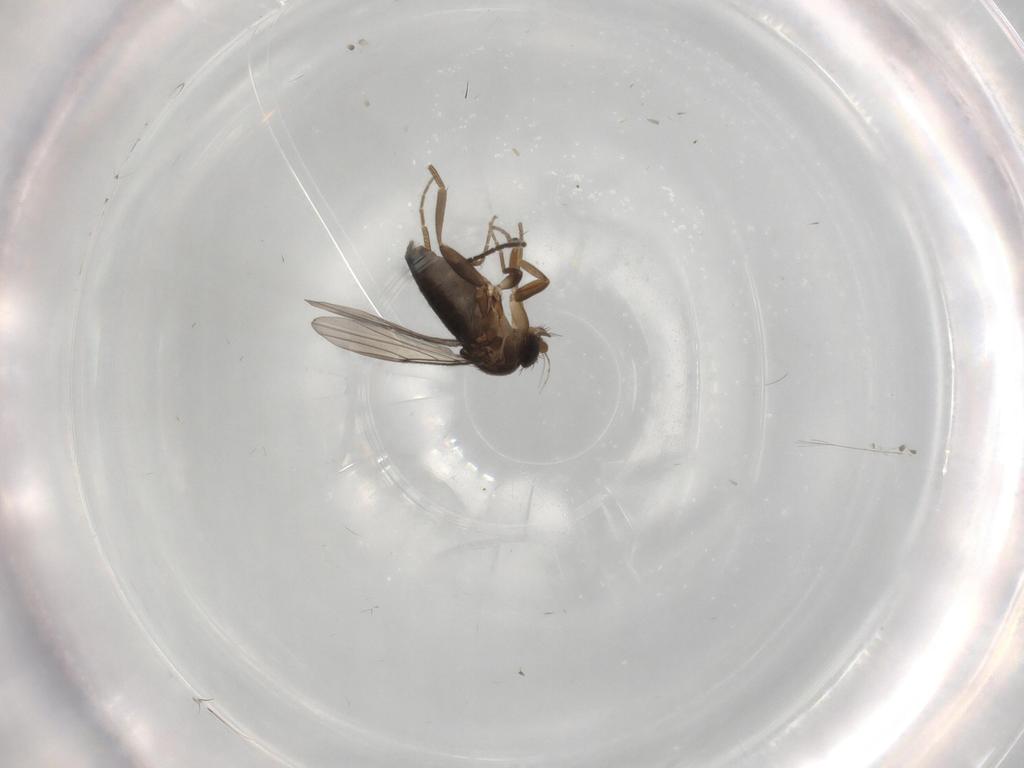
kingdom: Animalia
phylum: Arthropoda
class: Insecta
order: Diptera
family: Sciaridae
